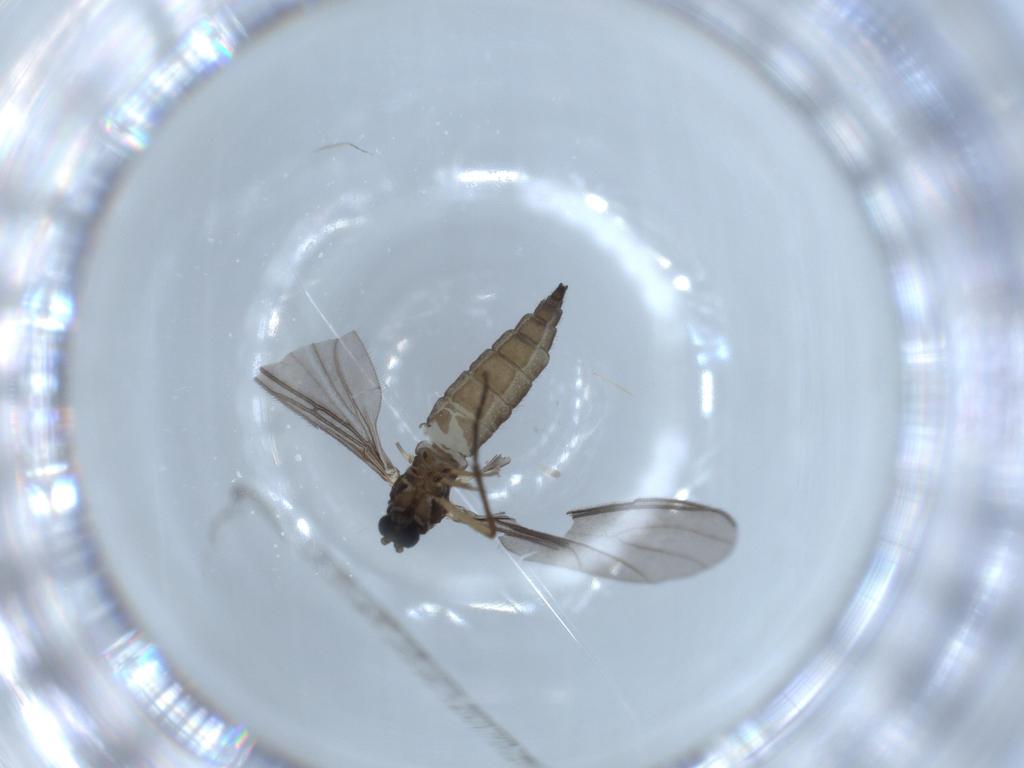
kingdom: Animalia
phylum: Arthropoda
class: Insecta
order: Diptera
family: Sciaridae
